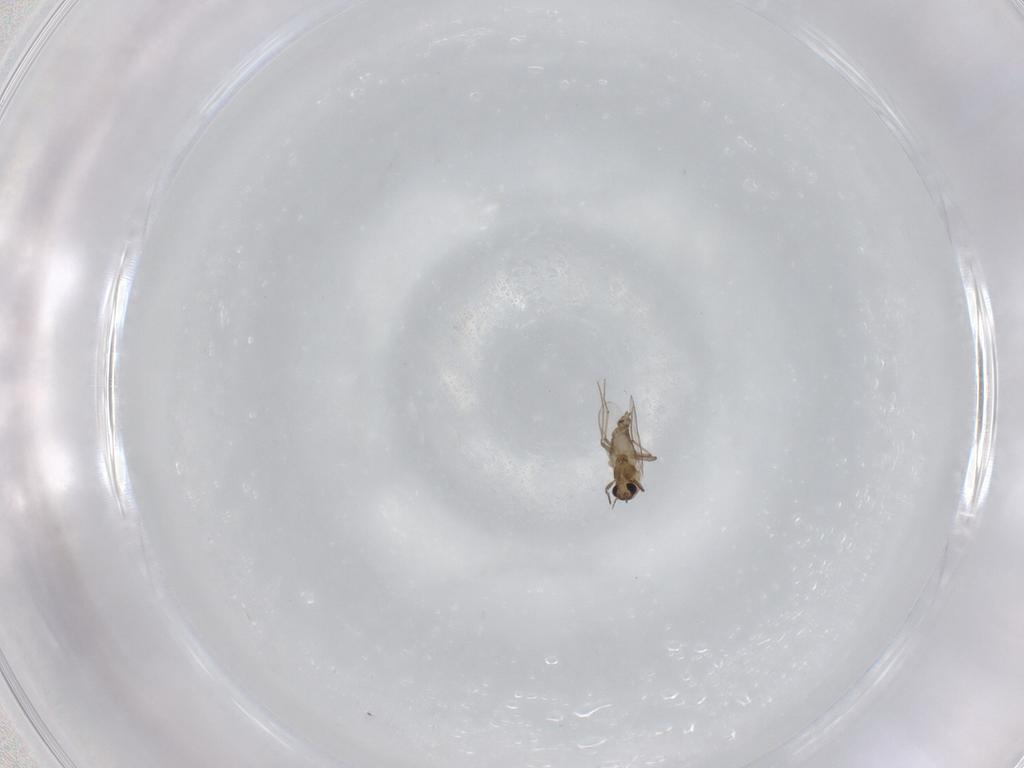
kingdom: Animalia
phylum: Arthropoda
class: Insecta
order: Diptera
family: Chironomidae
